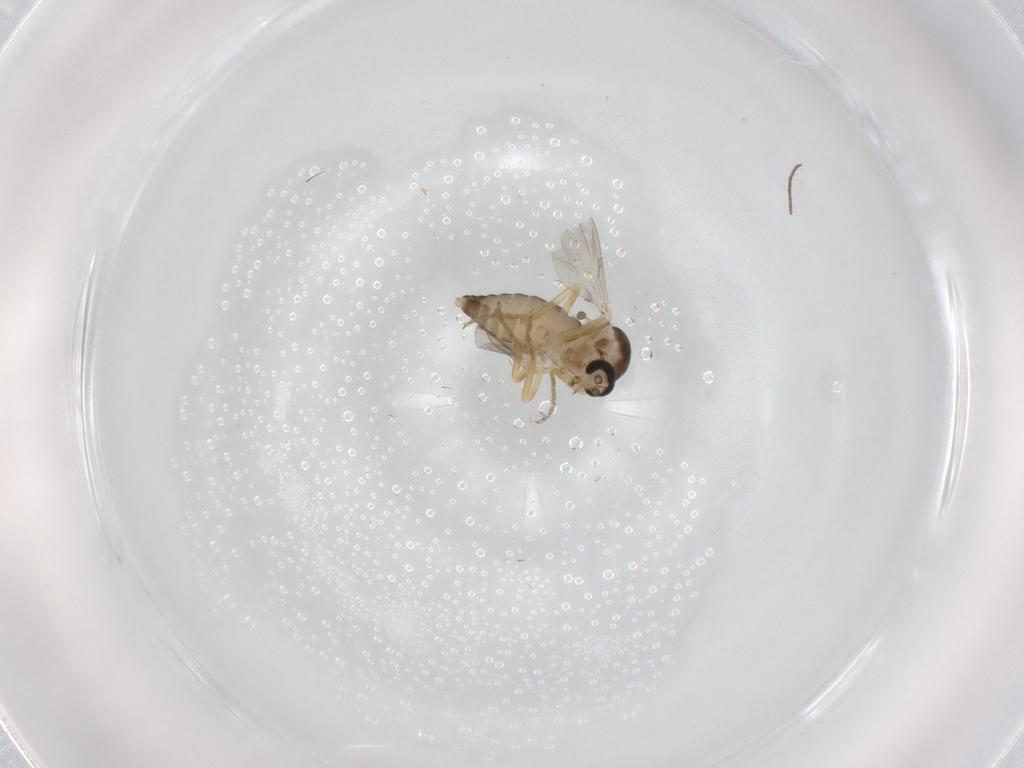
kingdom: Animalia
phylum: Arthropoda
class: Insecta
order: Diptera
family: Ceratopogonidae
